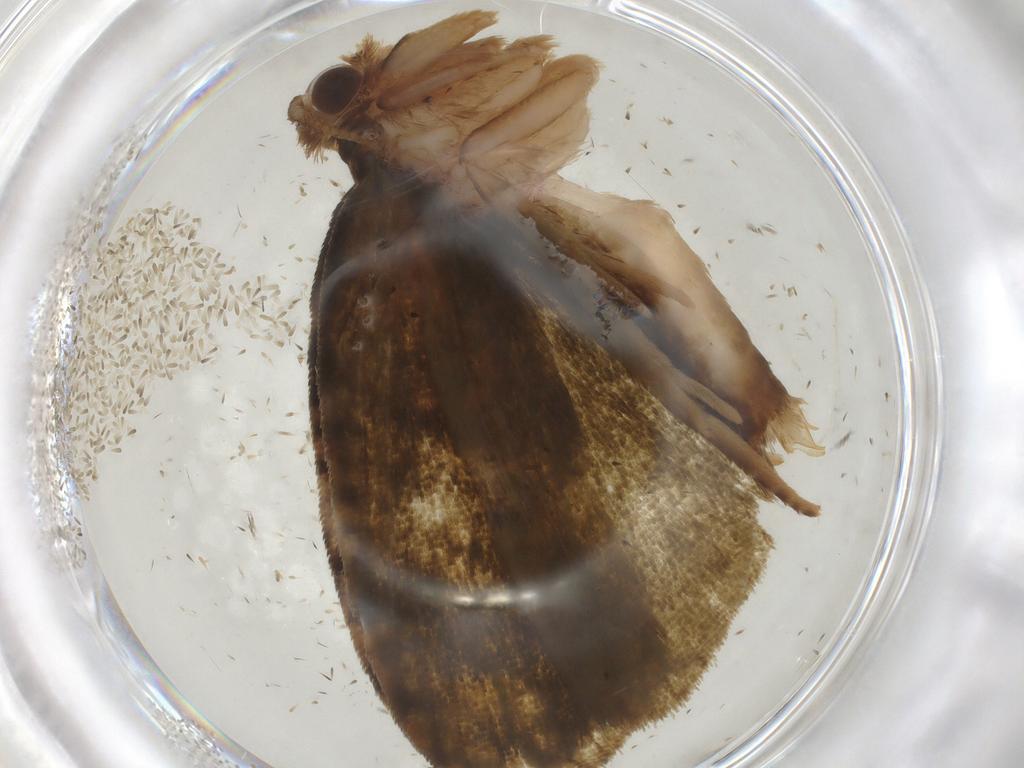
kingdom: Animalia
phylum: Arthropoda
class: Insecta
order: Lepidoptera
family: Geometridae
